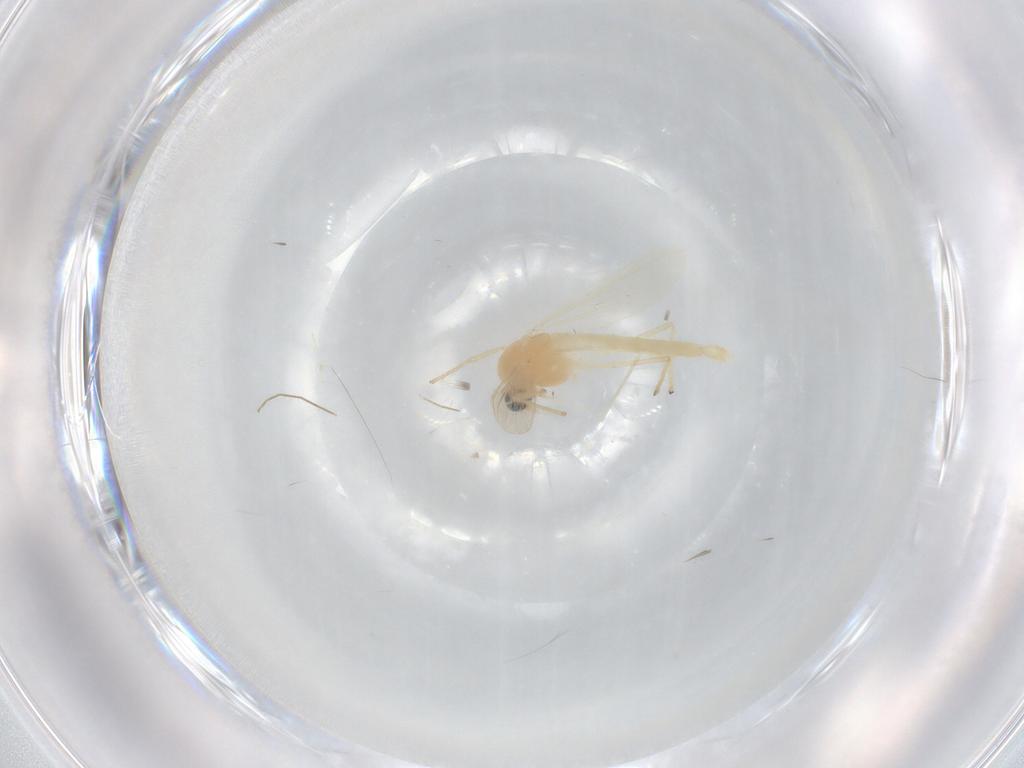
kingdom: Animalia
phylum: Arthropoda
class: Insecta
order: Diptera
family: Chironomidae
